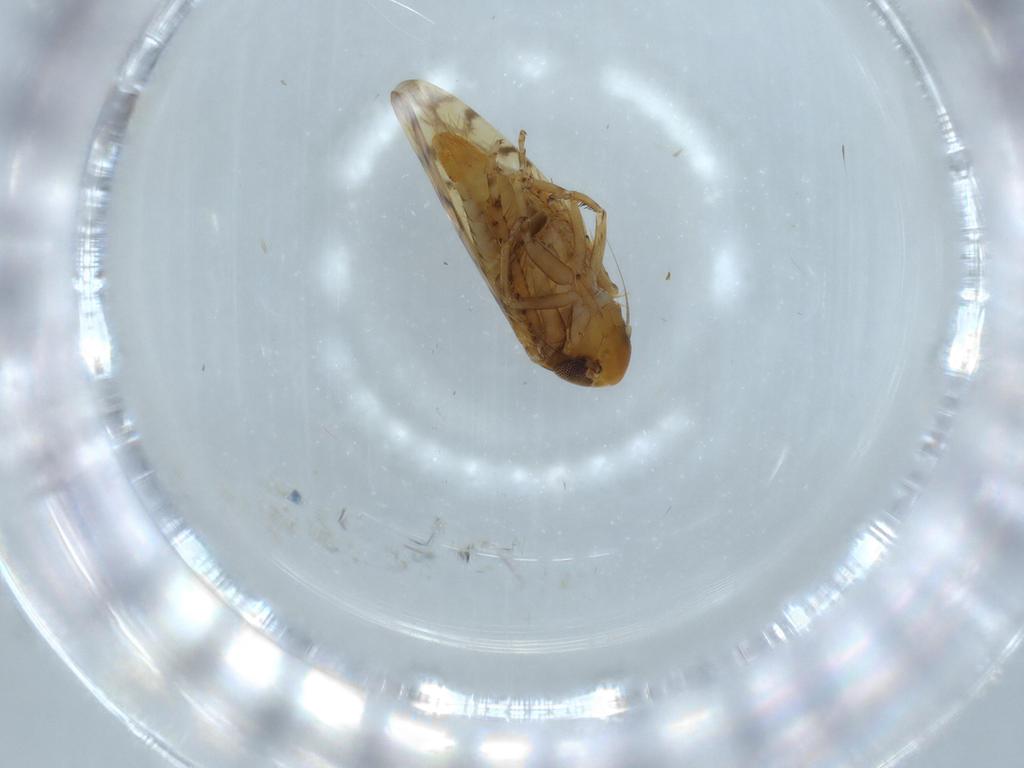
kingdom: Animalia
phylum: Arthropoda
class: Insecta
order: Hemiptera
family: Cicadellidae
